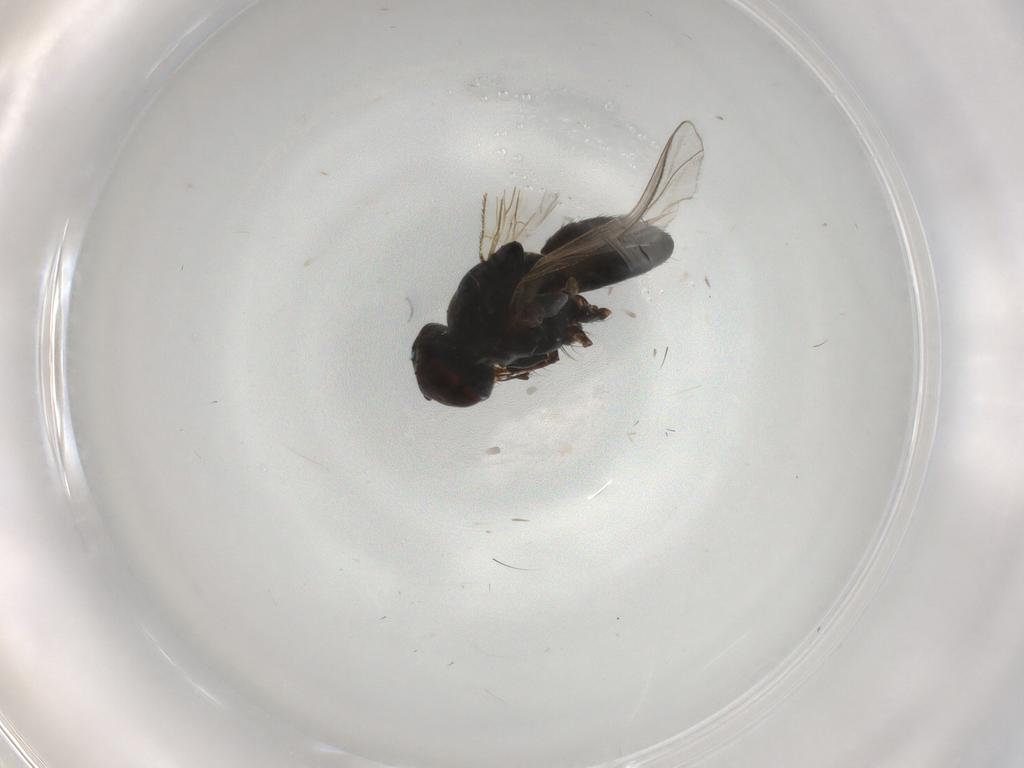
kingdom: Animalia
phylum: Arthropoda
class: Insecta
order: Diptera
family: Muscidae
